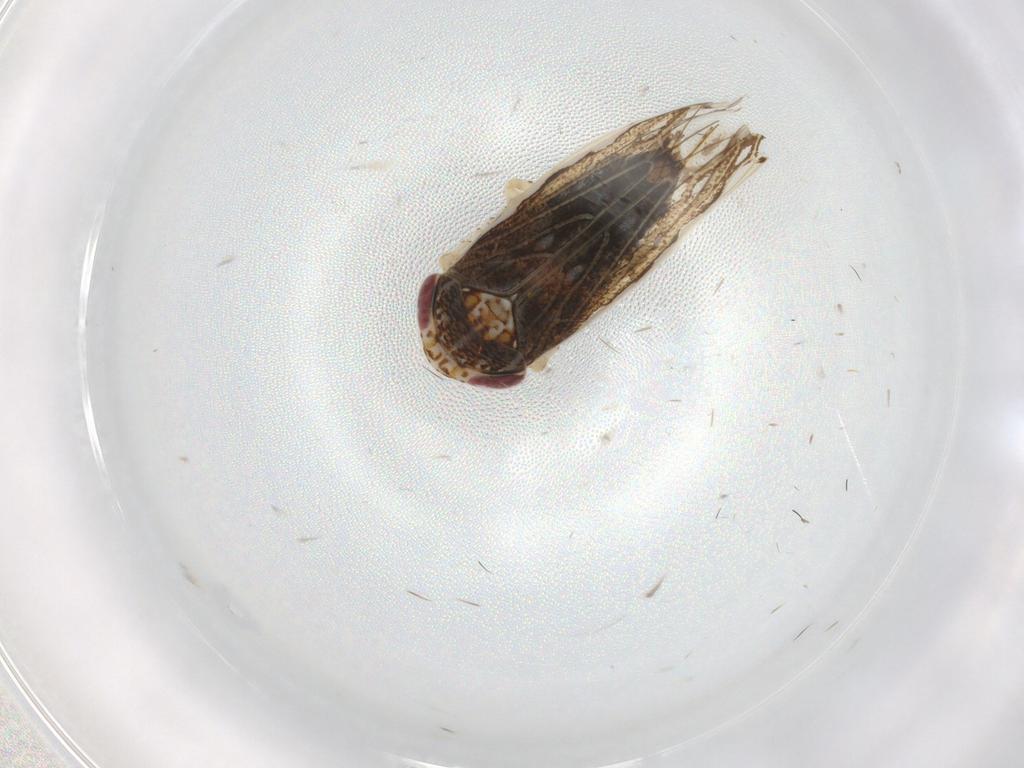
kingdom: Animalia
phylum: Arthropoda
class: Insecta
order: Hemiptera
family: Cicadellidae
